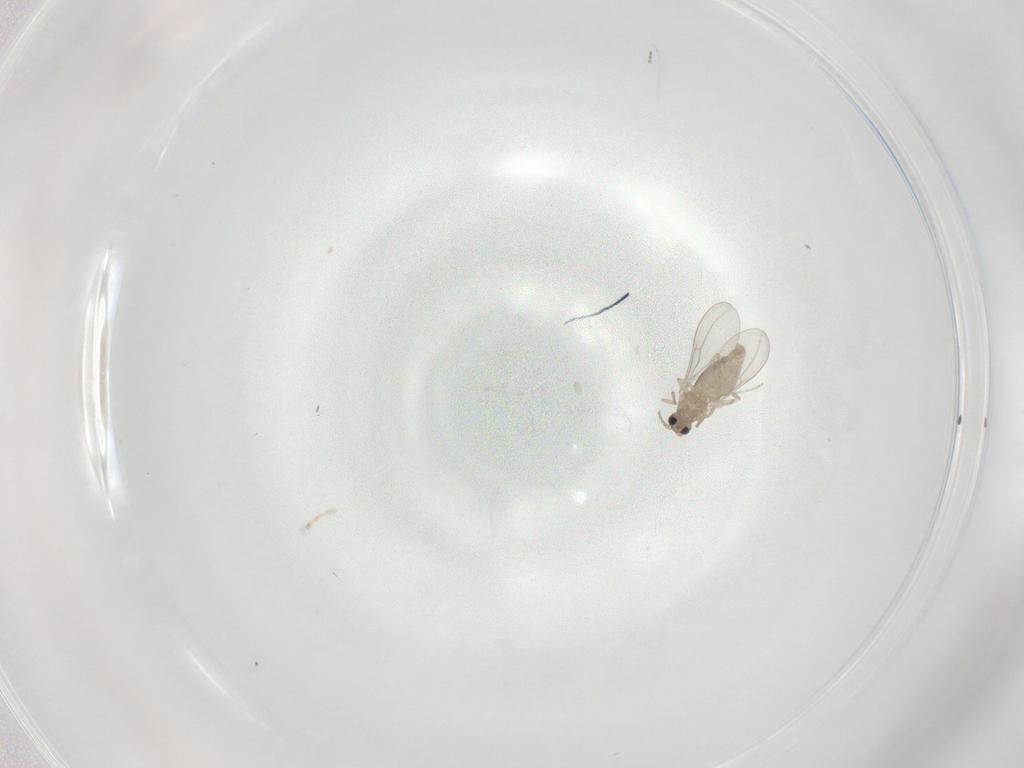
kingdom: Animalia
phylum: Arthropoda
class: Insecta
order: Diptera
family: Cecidomyiidae
